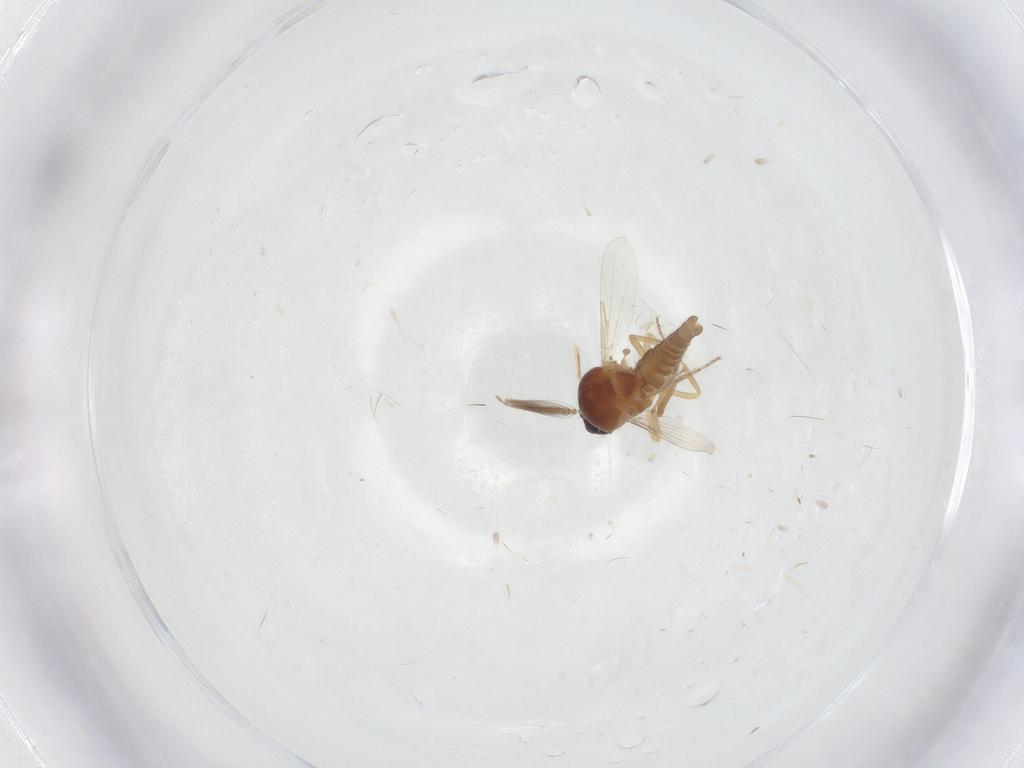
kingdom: Animalia
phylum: Arthropoda
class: Insecta
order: Diptera
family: Ceratopogonidae
